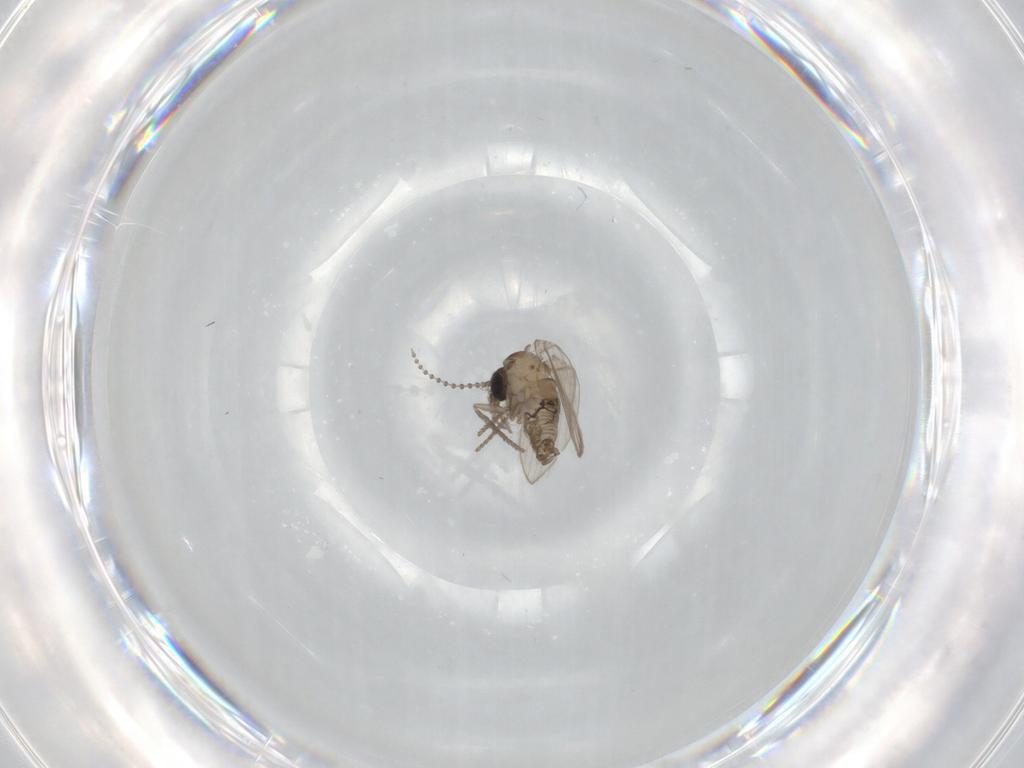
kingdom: Animalia
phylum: Arthropoda
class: Insecta
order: Diptera
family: Psychodidae
